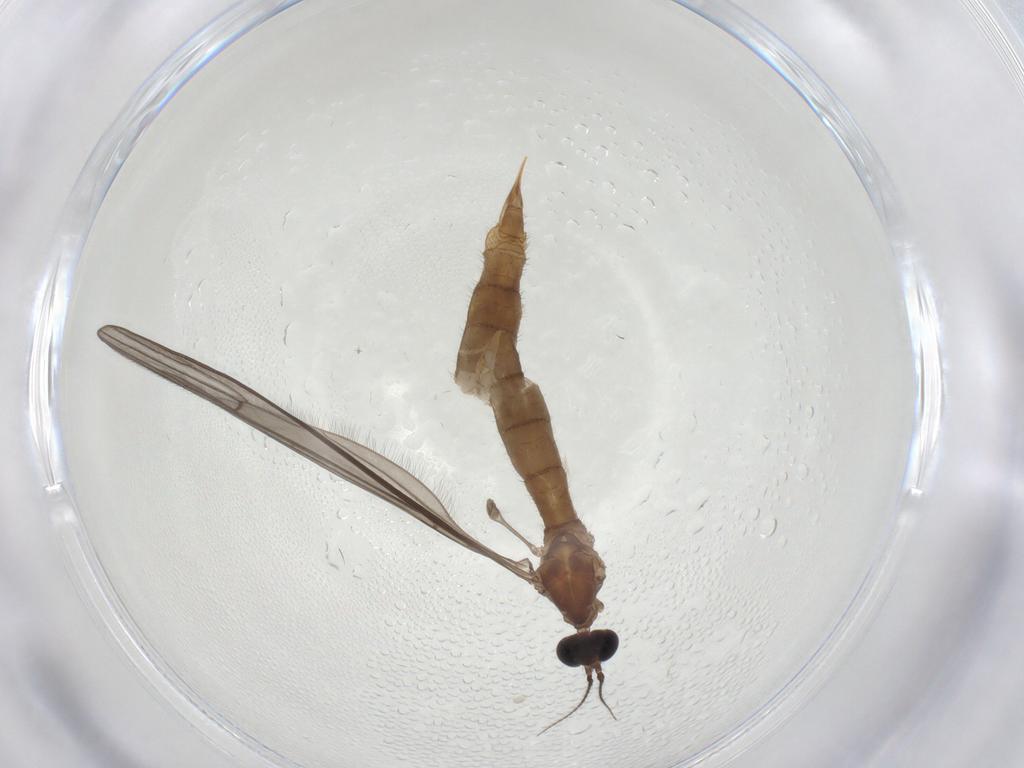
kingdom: Animalia
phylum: Arthropoda
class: Insecta
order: Diptera
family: Limoniidae
